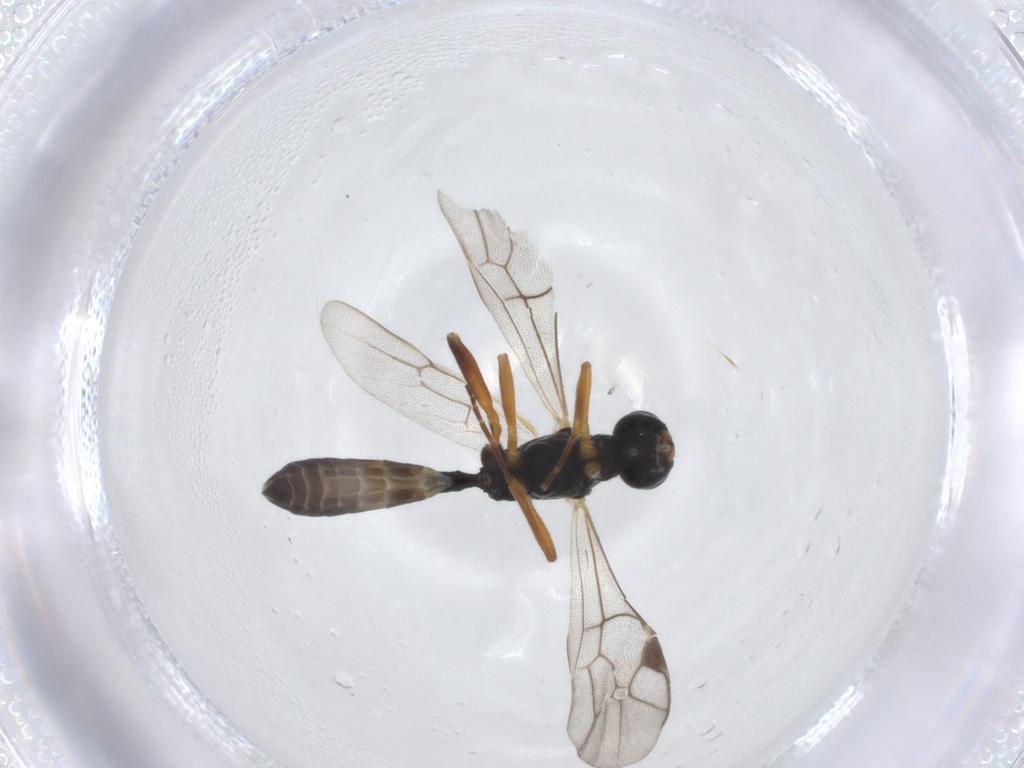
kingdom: Animalia
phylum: Arthropoda
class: Insecta
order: Hymenoptera
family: Ichneumonidae
